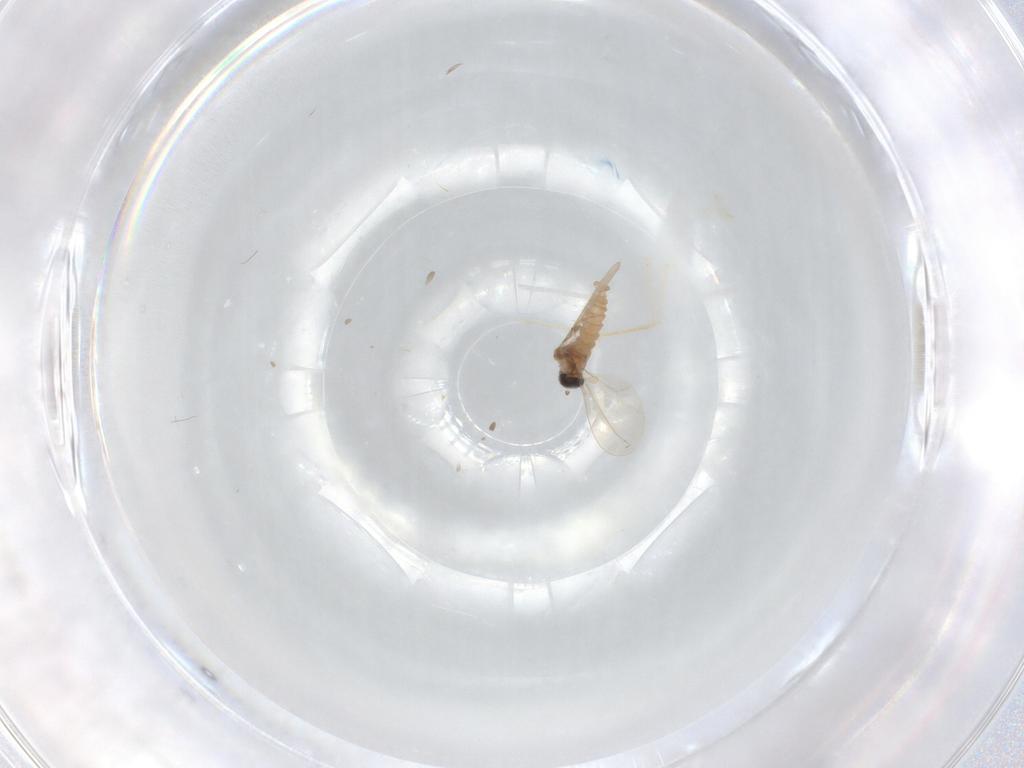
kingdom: Animalia
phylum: Arthropoda
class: Insecta
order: Diptera
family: Cecidomyiidae
